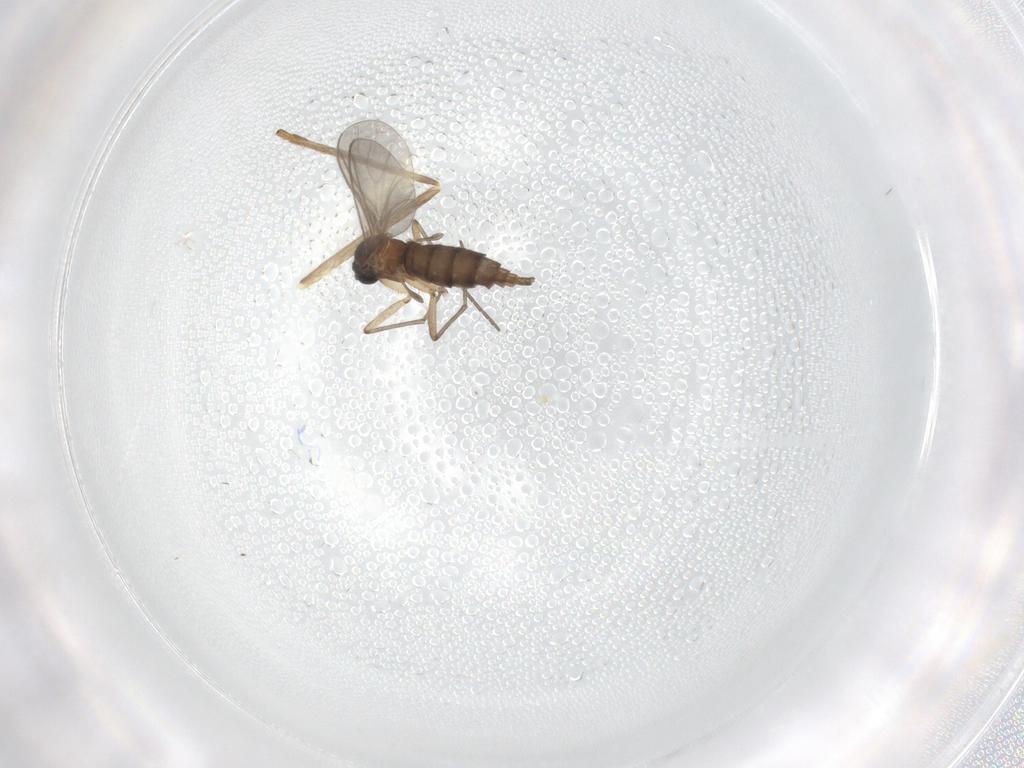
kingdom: Animalia
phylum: Arthropoda
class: Insecta
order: Diptera
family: Sciaridae
